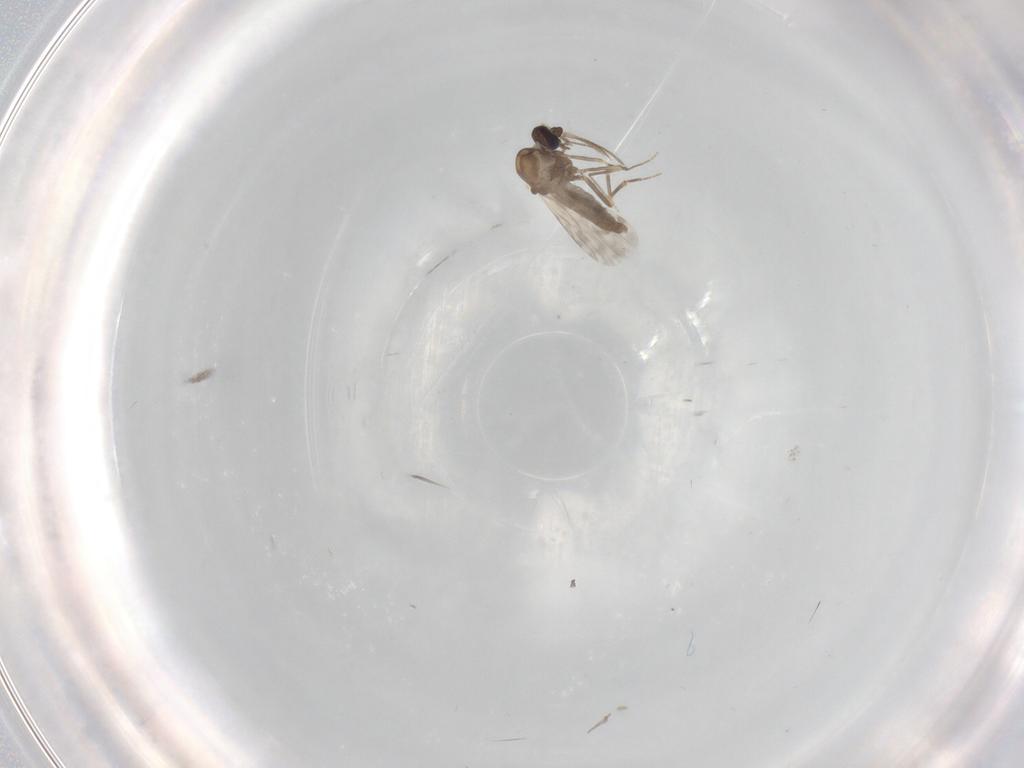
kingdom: Animalia
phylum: Arthropoda
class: Insecta
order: Diptera
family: Ceratopogonidae
